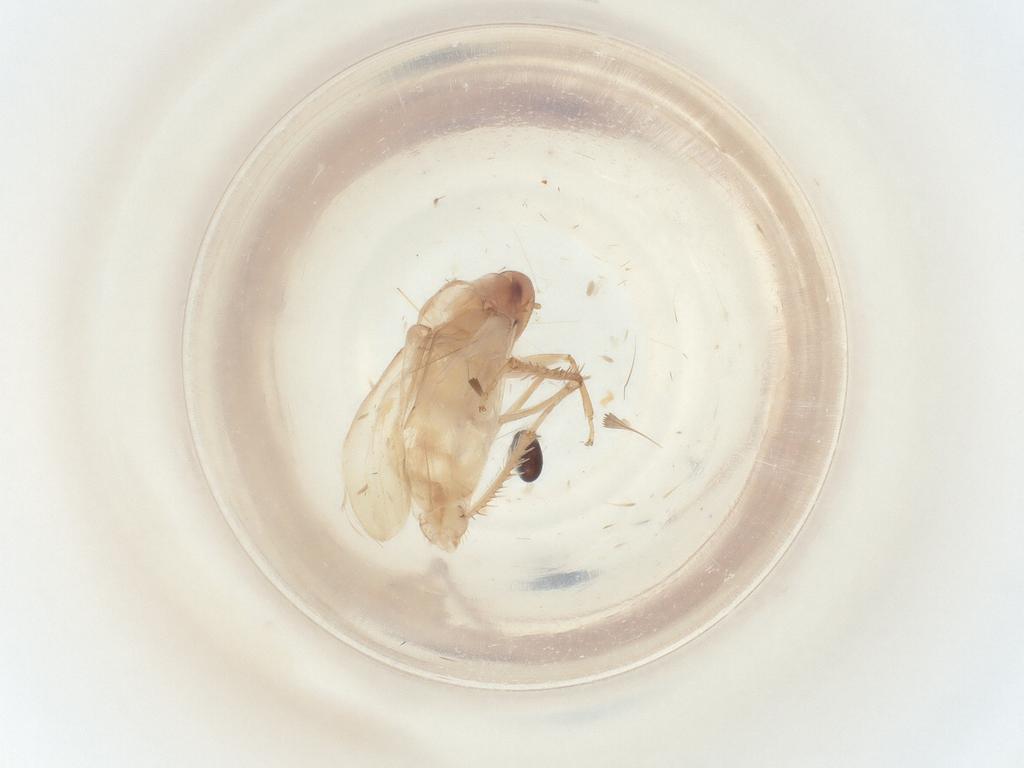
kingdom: Animalia
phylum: Arthropoda
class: Insecta
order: Hemiptera
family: Cicadellidae
